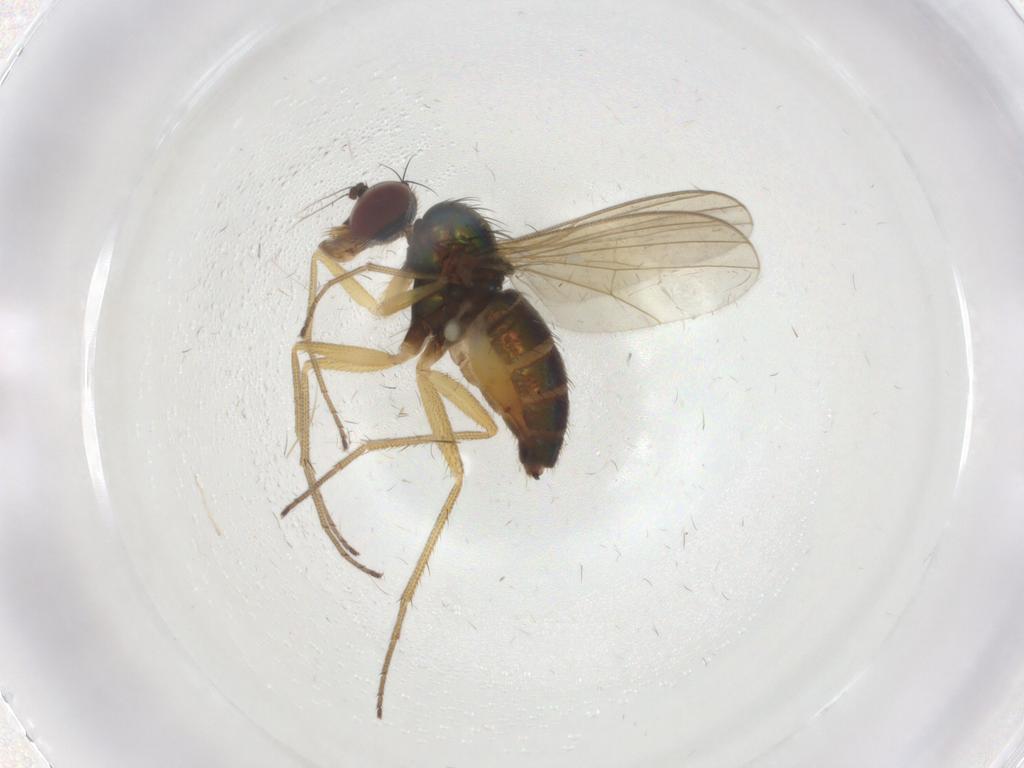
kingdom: Animalia
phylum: Arthropoda
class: Insecta
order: Diptera
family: Dolichopodidae
